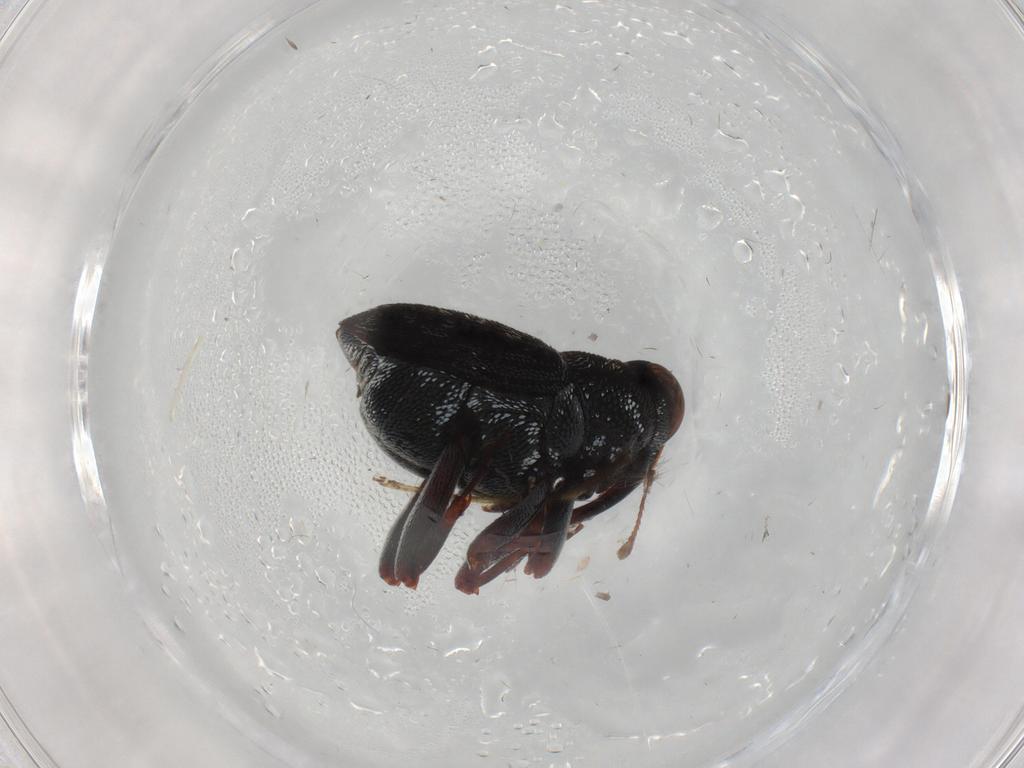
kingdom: Animalia
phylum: Arthropoda
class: Insecta
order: Coleoptera
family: Curculionidae
